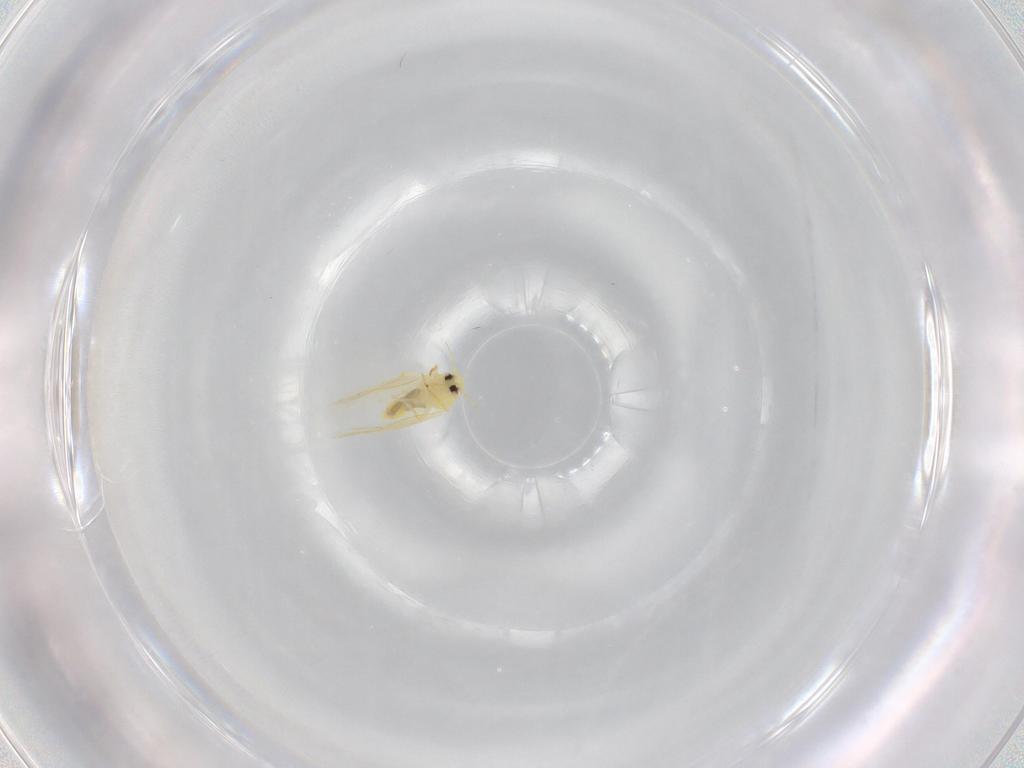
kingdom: Animalia
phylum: Arthropoda
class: Insecta
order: Hemiptera
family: Aleyrodidae
